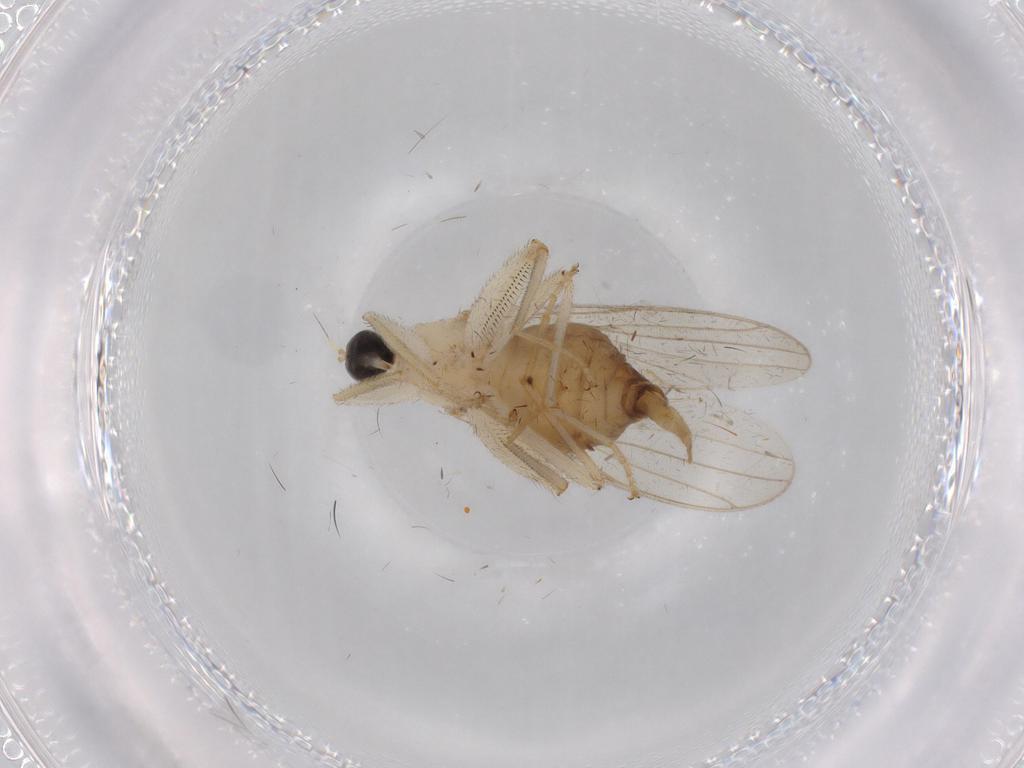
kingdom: Animalia
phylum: Arthropoda
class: Insecta
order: Diptera
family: Hybotidae
